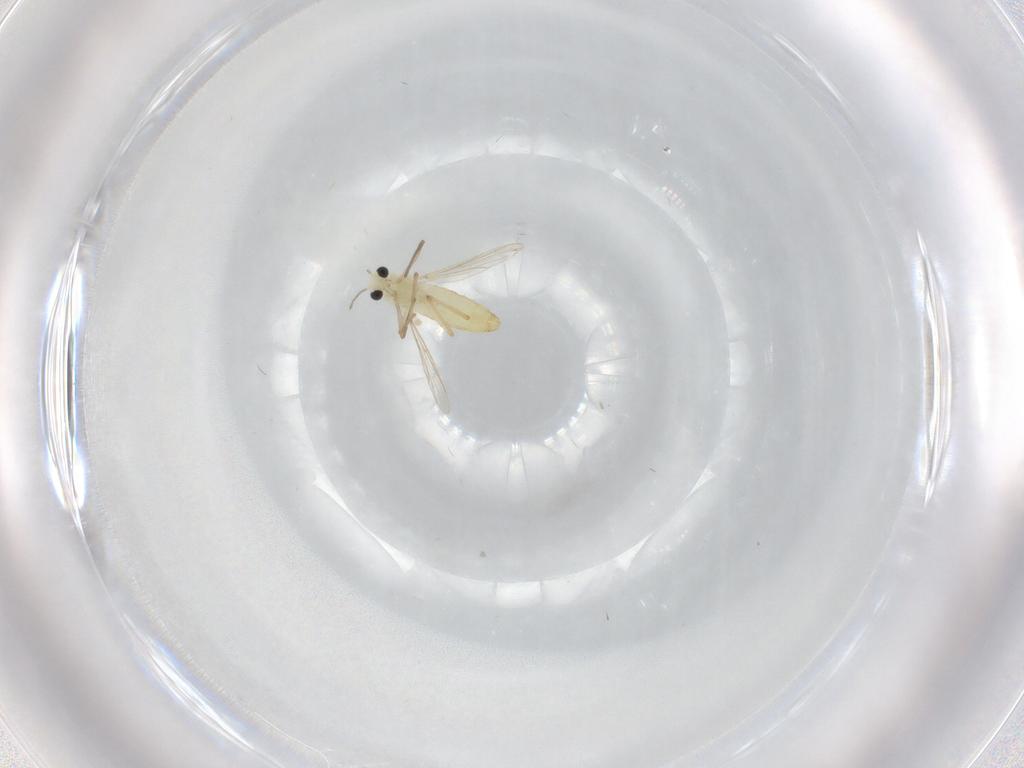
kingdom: Animalia
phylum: Arthropoda
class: Insecta
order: Diptera
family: Chironomidae
